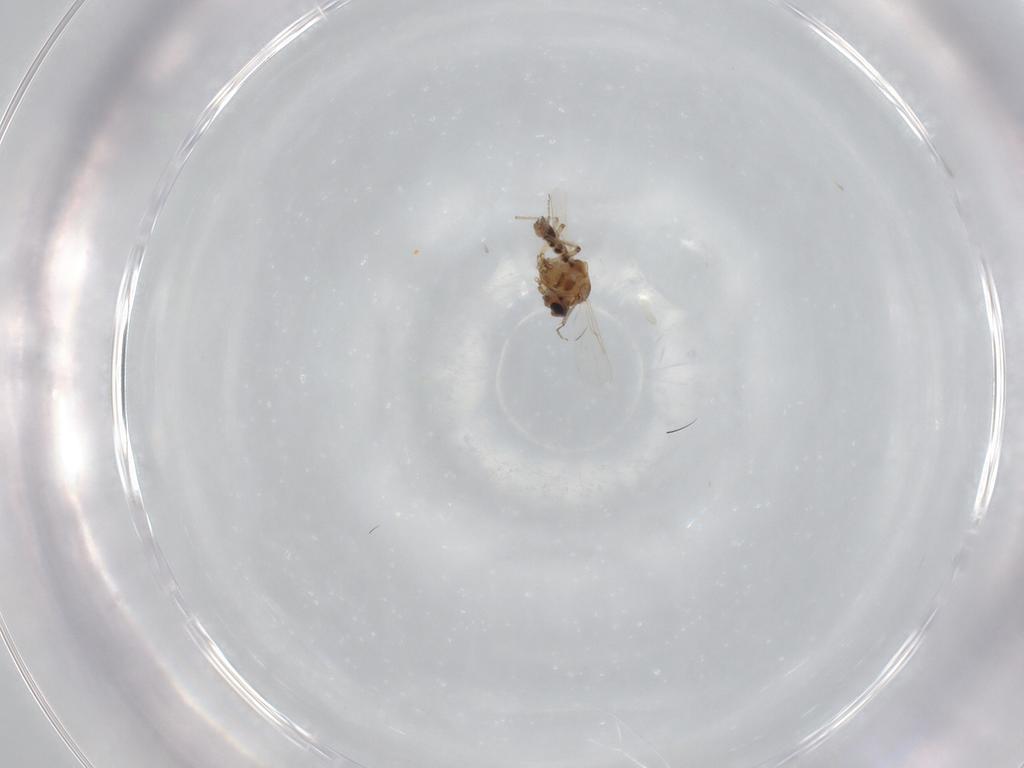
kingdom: Animalia
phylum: Arthropoda
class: Insecta
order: Diptera
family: Ceratopogonidae
